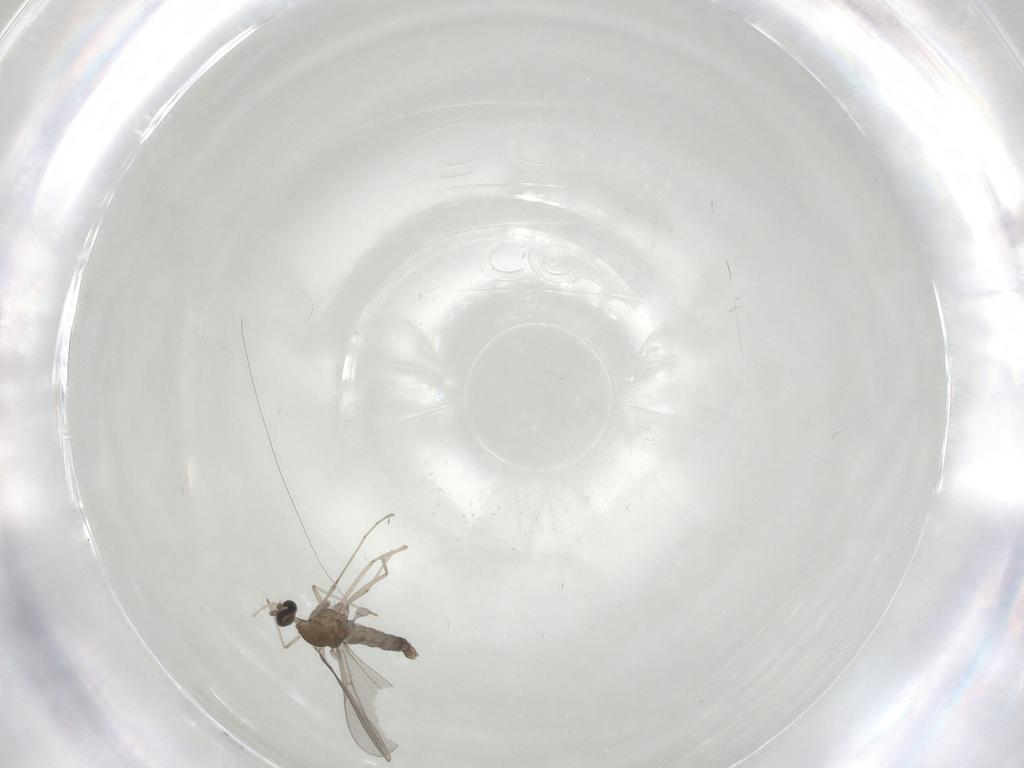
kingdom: Animalia
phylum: Arthropoda
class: Insecta
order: Diptera
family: Cecidomyiidae
